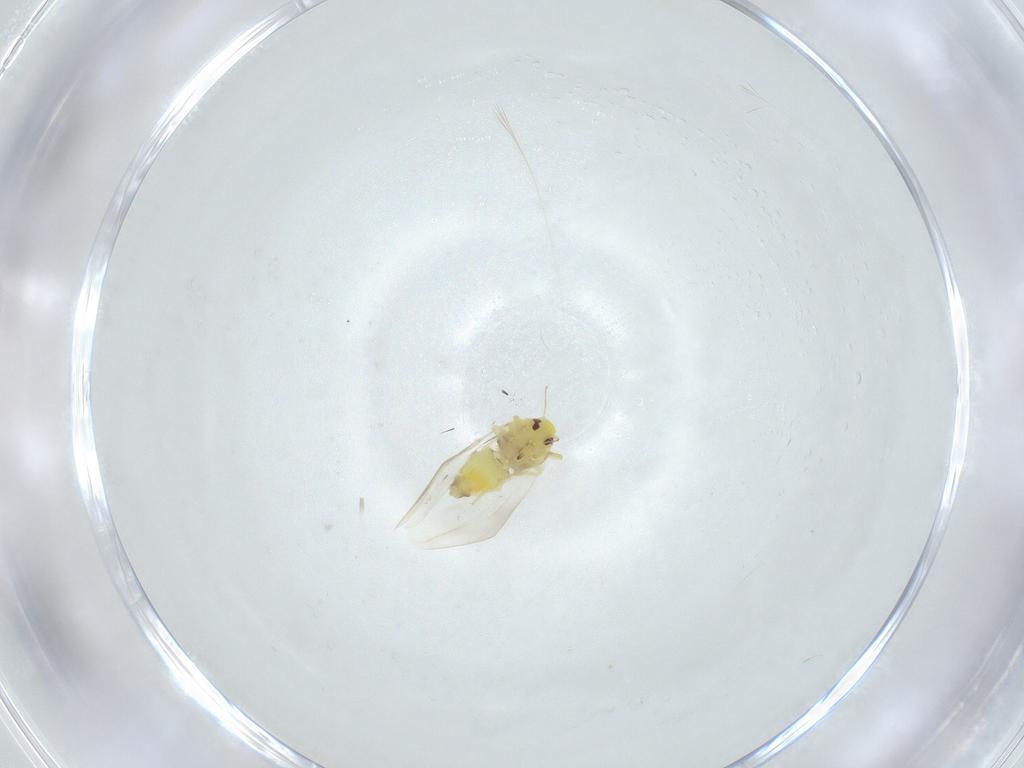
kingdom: Animalia
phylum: Arthropoda
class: Insecta
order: Hemiptera
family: Aleyrodidae
